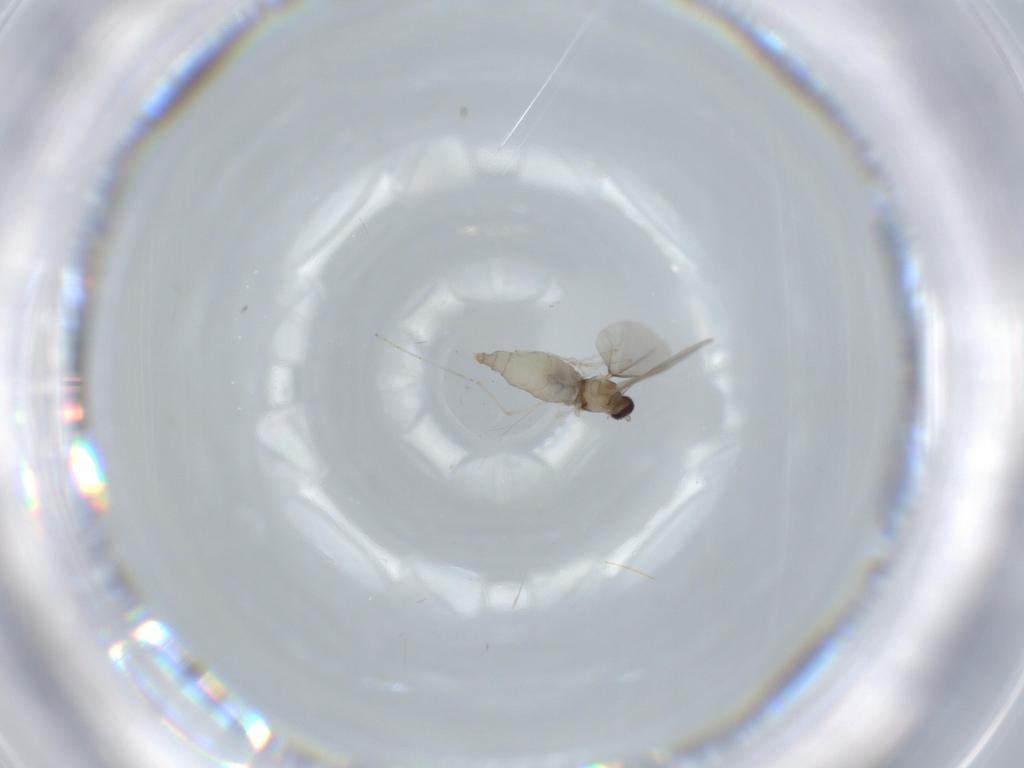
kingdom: Animalia
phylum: Arthropoda
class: Insecta
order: Diptera
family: Cecidomyiidae
